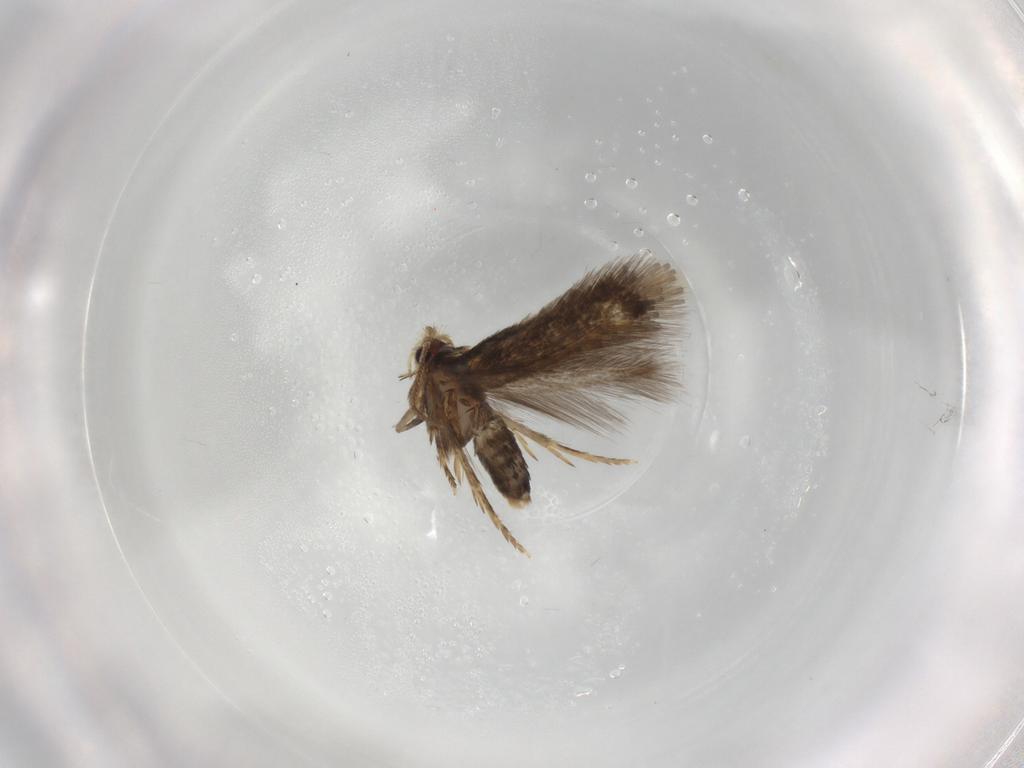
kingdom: Animalia
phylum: Arthropoda
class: Insecta
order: Lepidoptera
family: Nepticulidae
